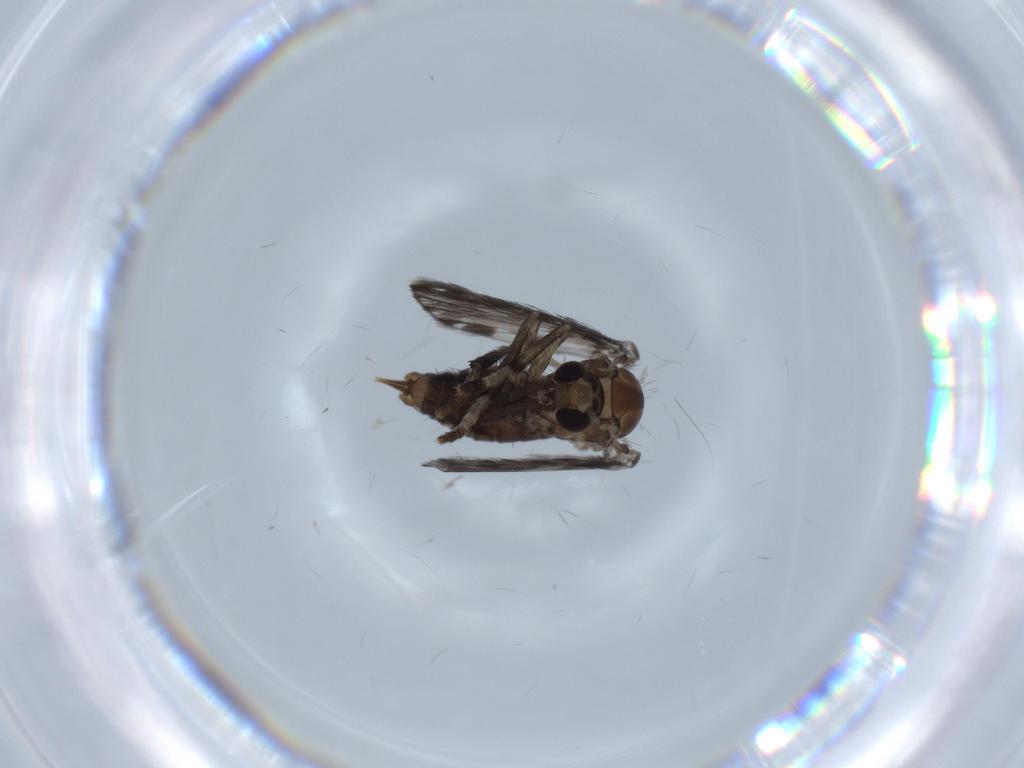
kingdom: Animalia
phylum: Arthropoda
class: Insecta
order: Diptera
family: Psychodidae
